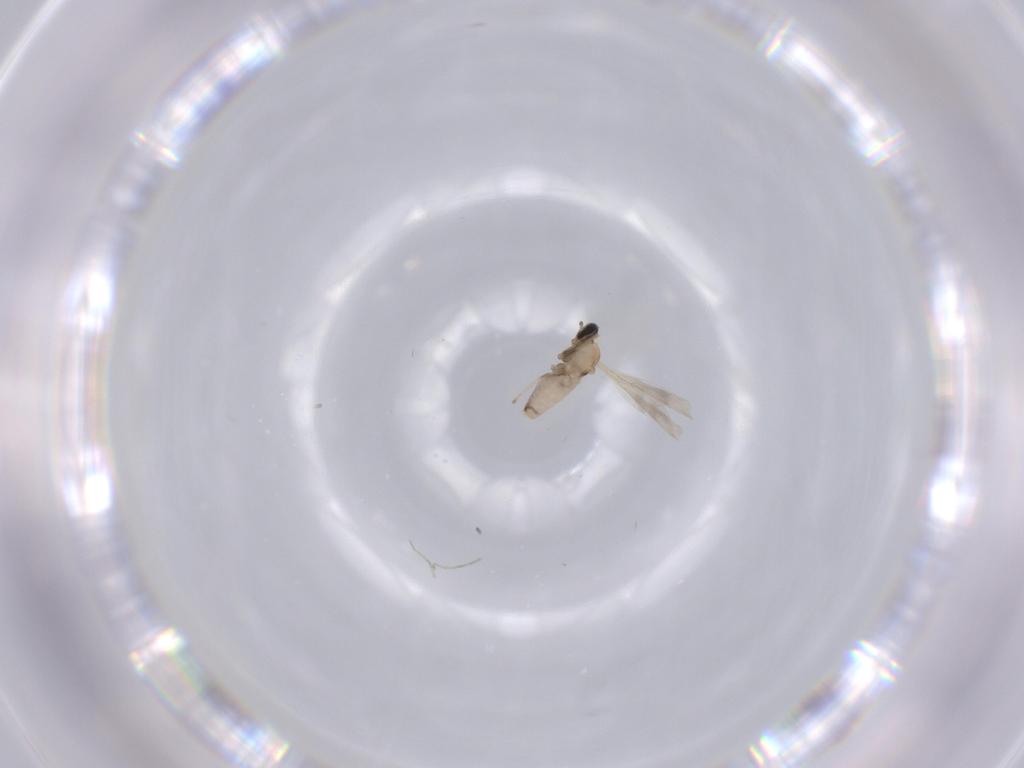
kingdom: Animalia
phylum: Arthropoda
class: Insecta
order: Diptera
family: Cecidomyiidae
